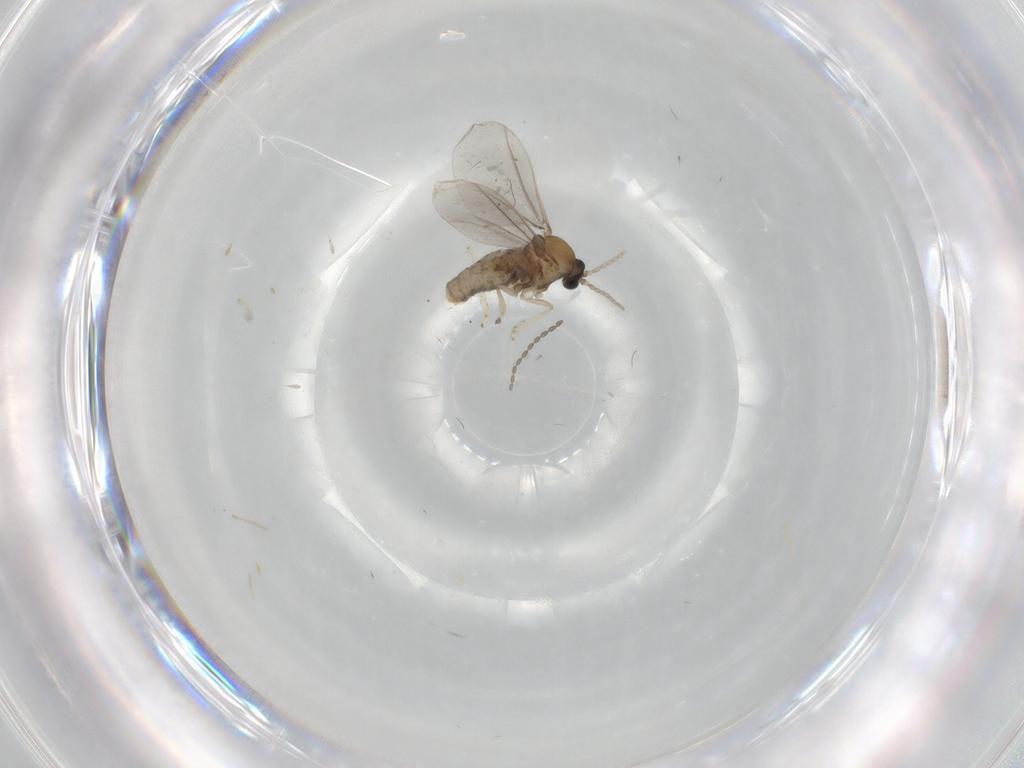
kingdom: Animalia
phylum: Arthropoda
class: Insecta
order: Diptera
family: Cecidomyiidae
